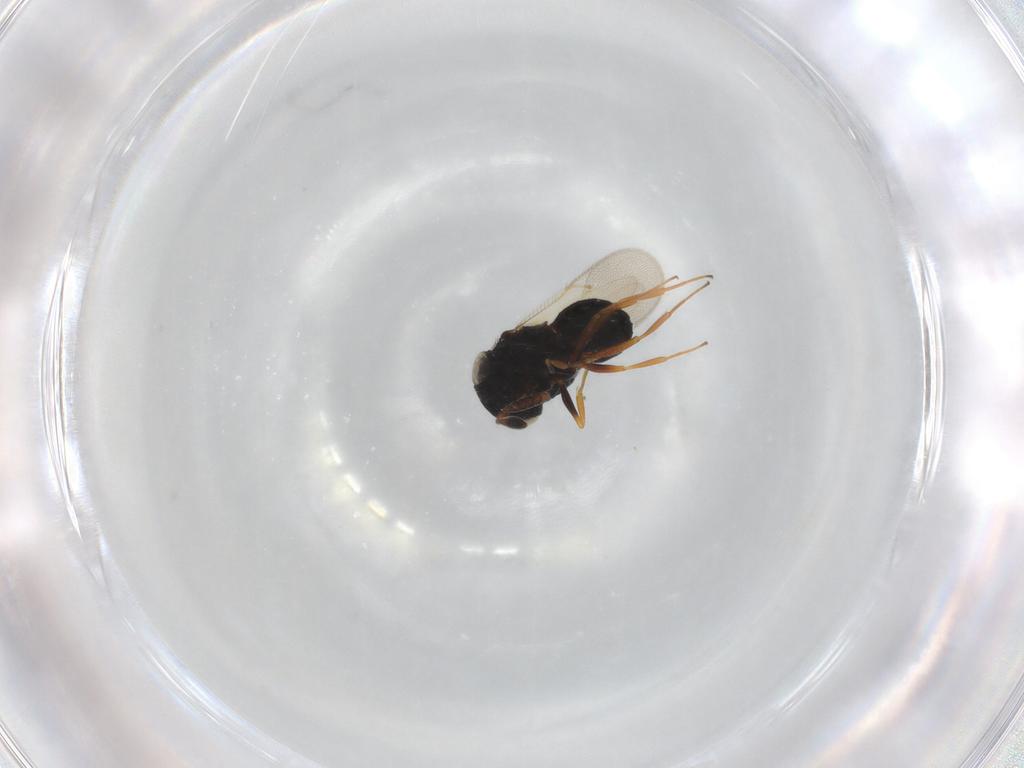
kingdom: Animalia
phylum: Arthropoda
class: Insecta
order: Hymenoptera
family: Scelionidae
